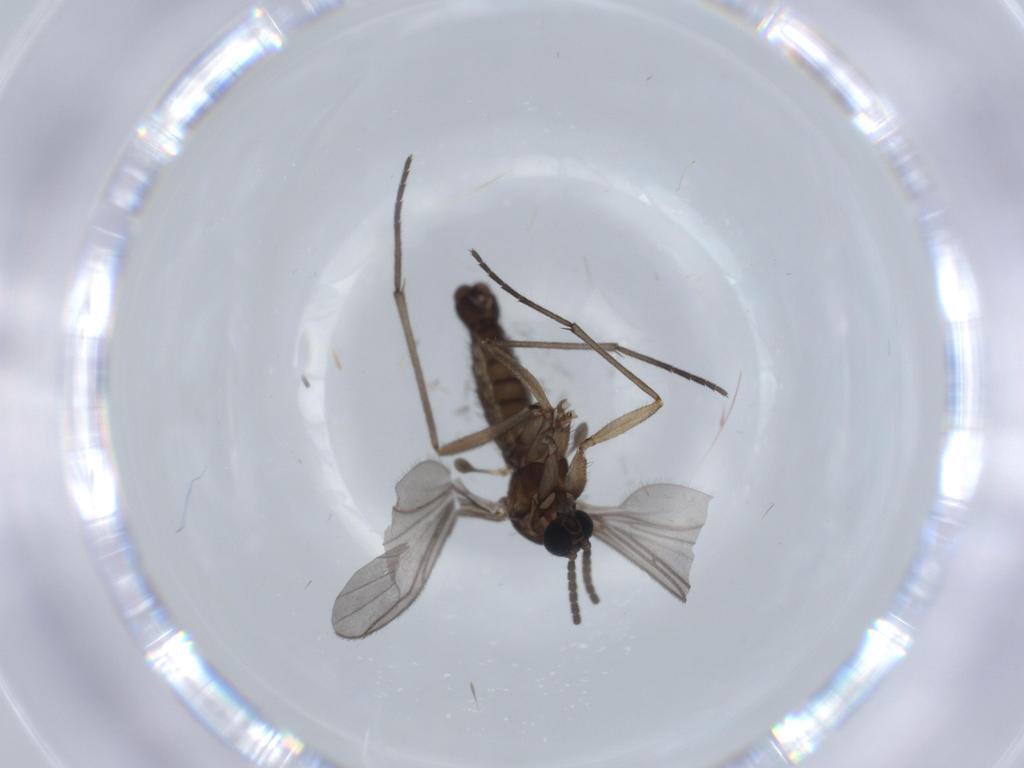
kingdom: Animalia
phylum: Arthropoda
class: Insecta
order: Diptera
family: Sciaridae
